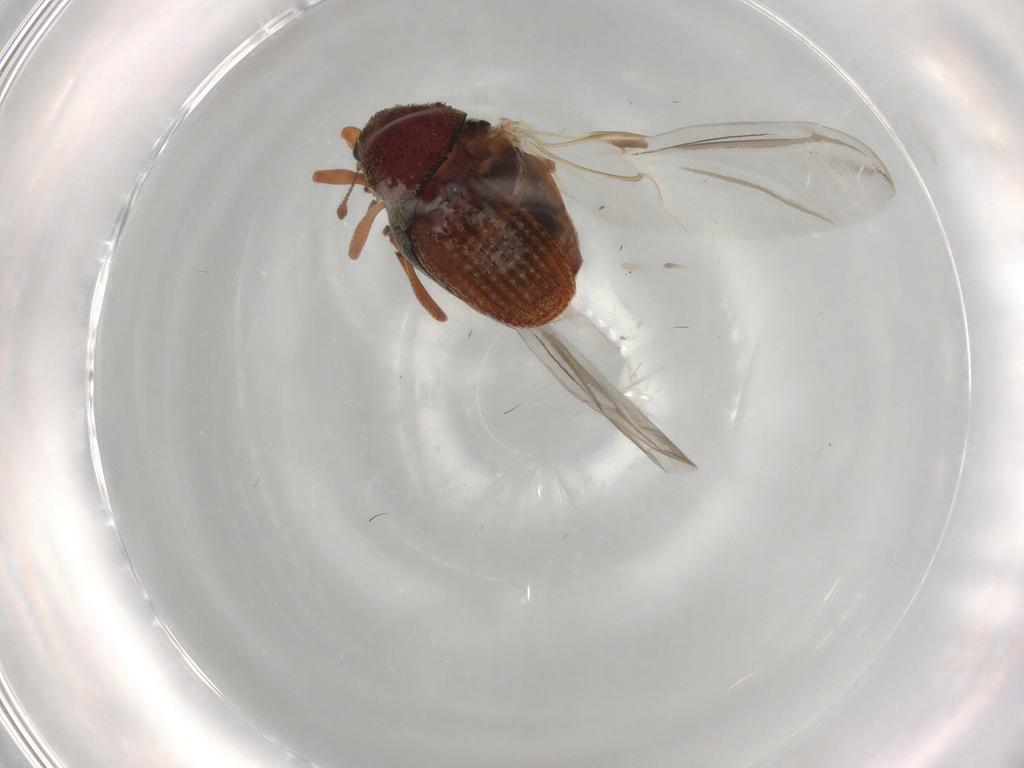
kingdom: Animalia
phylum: Arthropoda
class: Insecta
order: Coleoptera
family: Curculionidae
